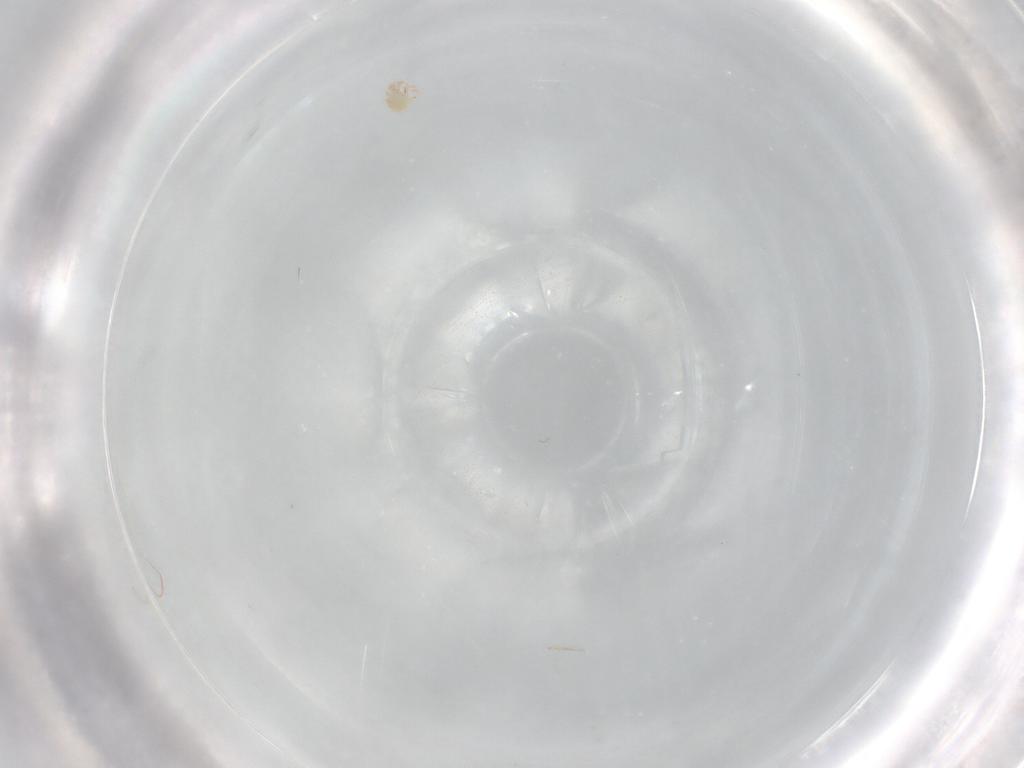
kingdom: Animalia
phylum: Arthropoda
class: Arachnida
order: Trombidiformes
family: Stigmaeidae
